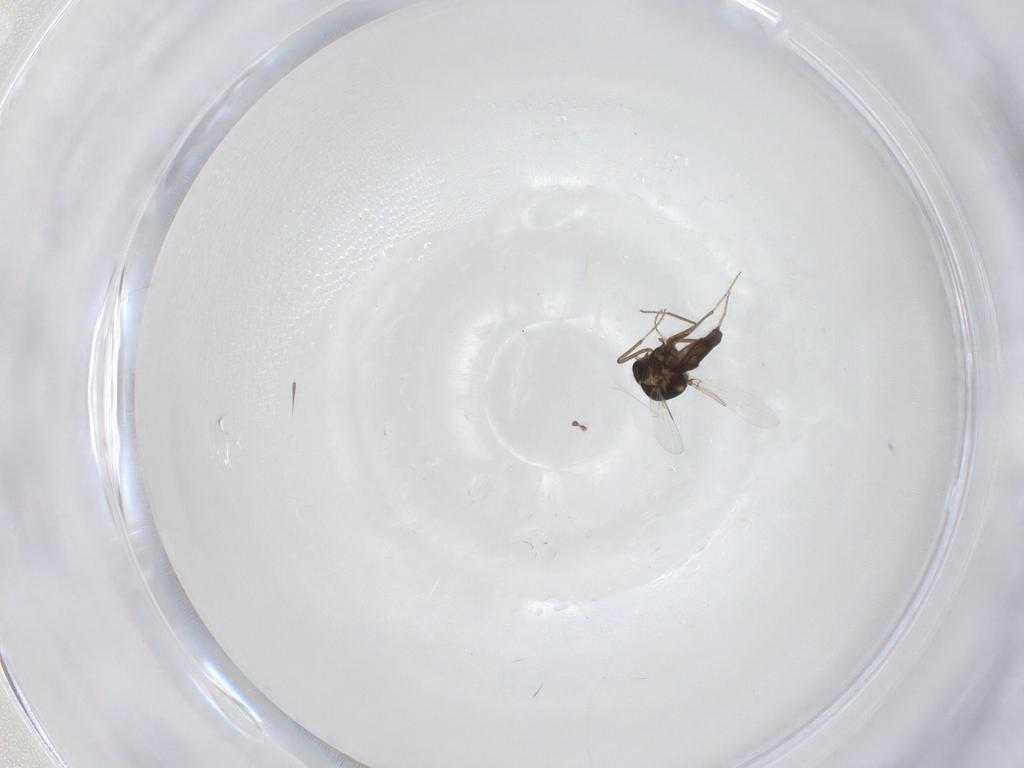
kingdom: Animalia
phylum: Arthropoda
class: Insecta
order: Diptera
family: Ceratopogonidae
